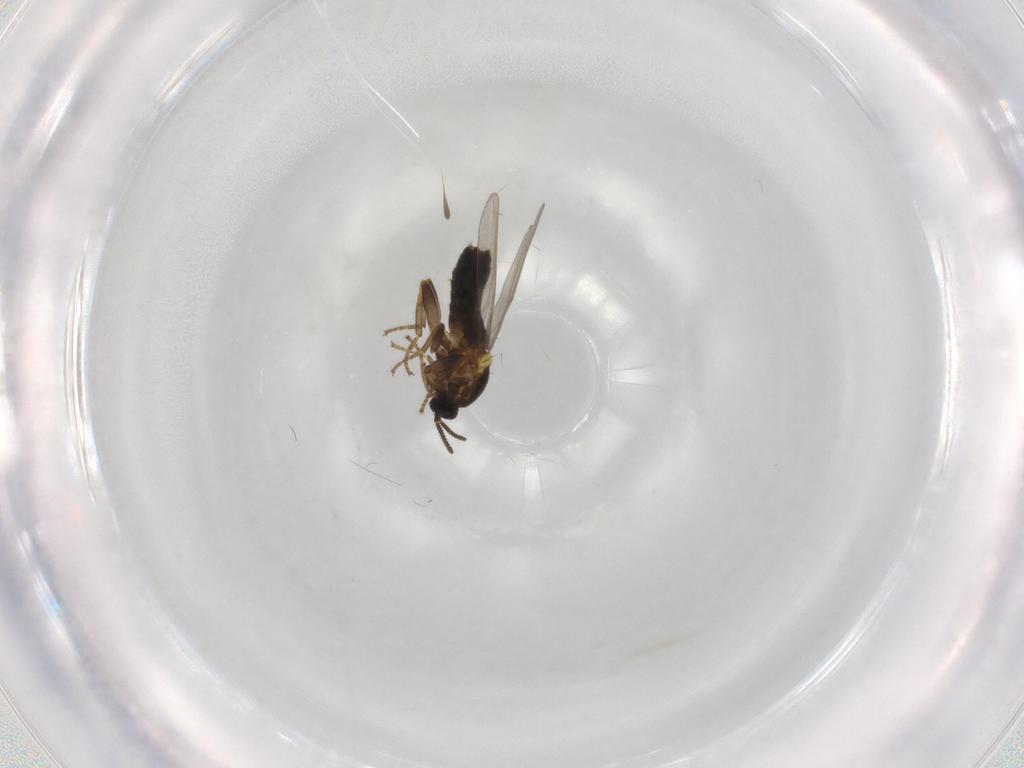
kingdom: Animalia
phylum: Arthropoda
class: Insecta
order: Diptera
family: Scatopsidae
